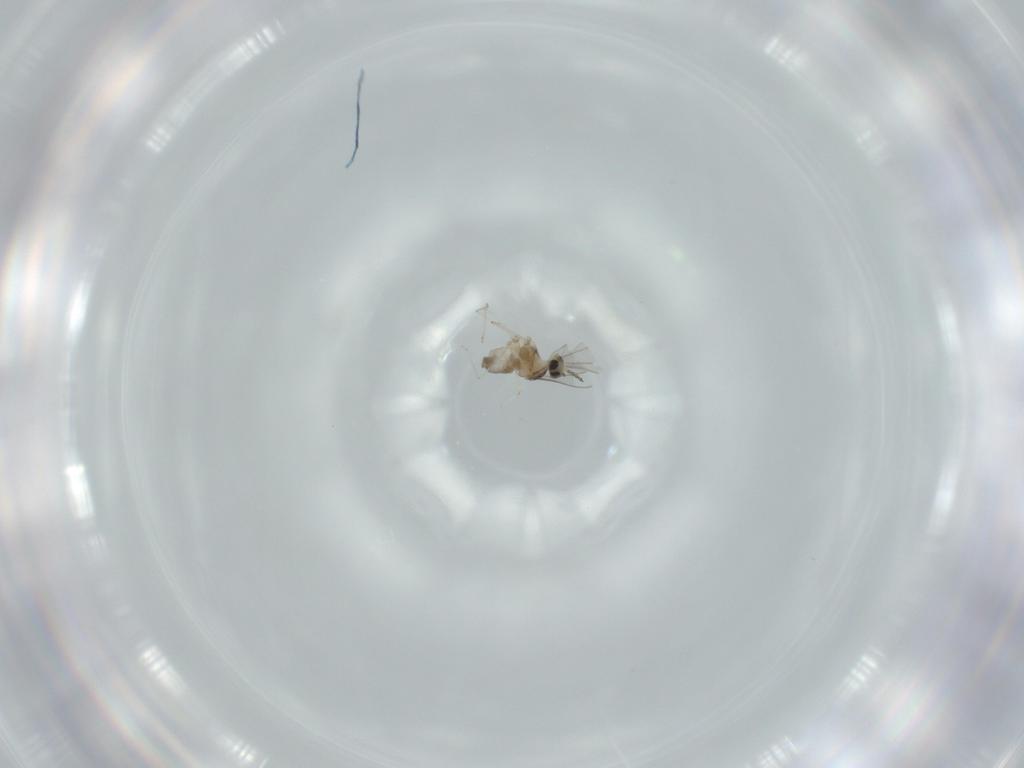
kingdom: Animalia
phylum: Arthropoda
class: Insecta
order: Diptera
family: Cecidomyiidae
